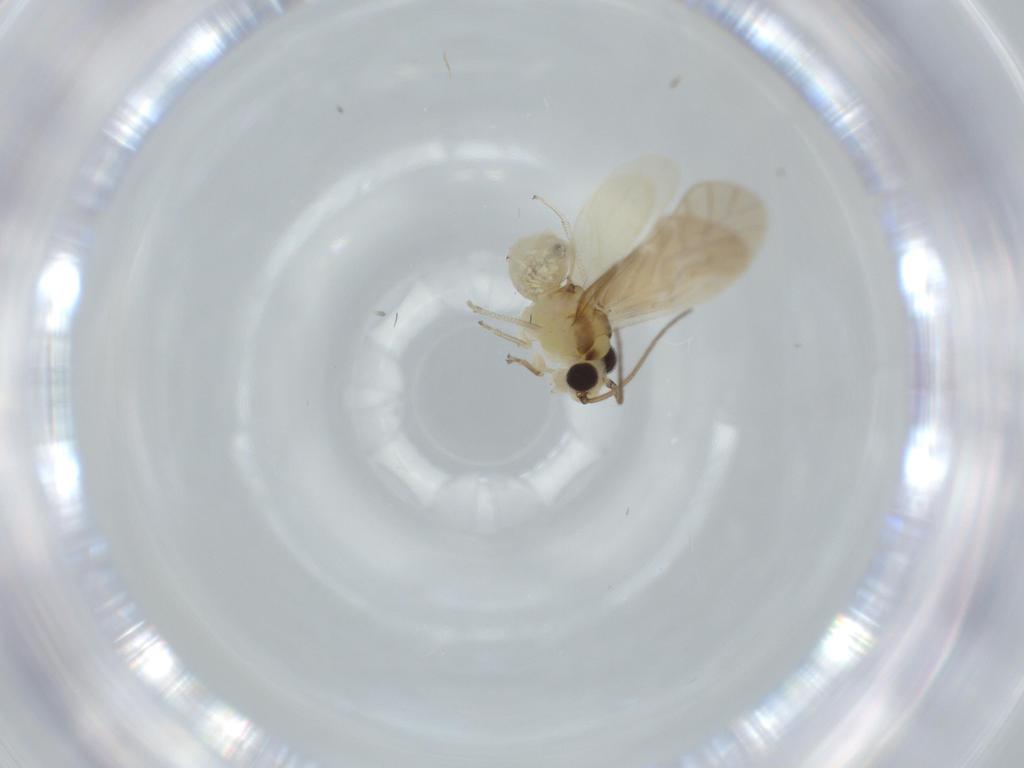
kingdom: Animalia
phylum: Arthropoda
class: Insecta
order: Psocodea
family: Caeciliusidae
